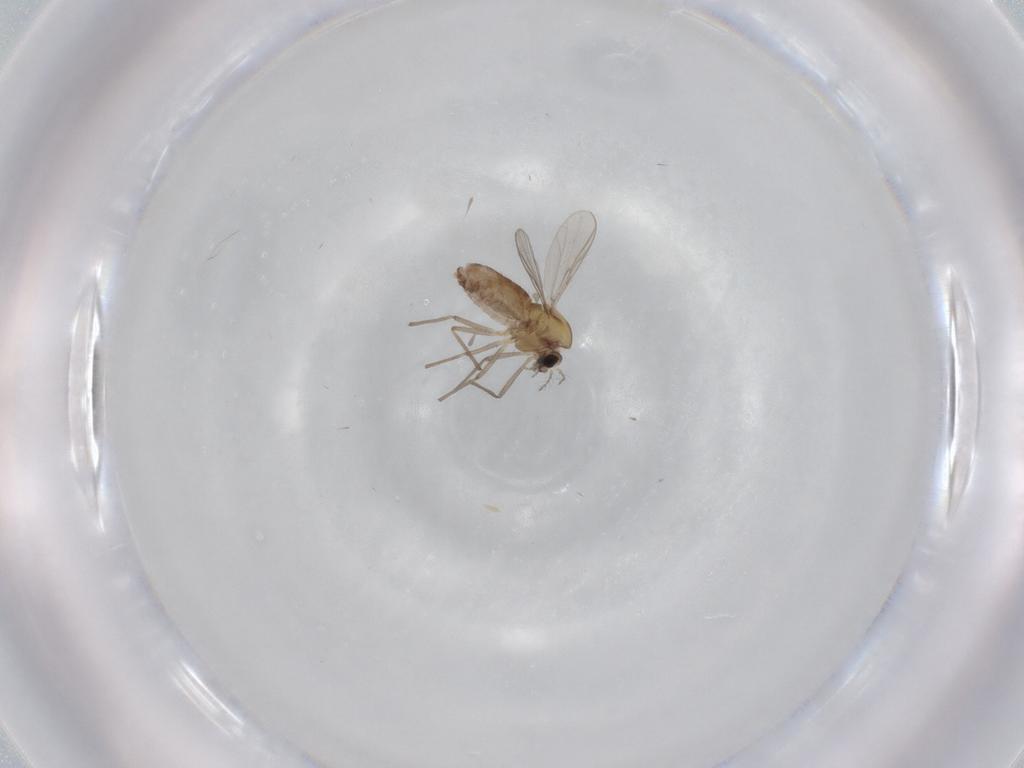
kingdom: Animalia
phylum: Arthropoda
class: Insecta
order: Diptera
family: Chironomidae
